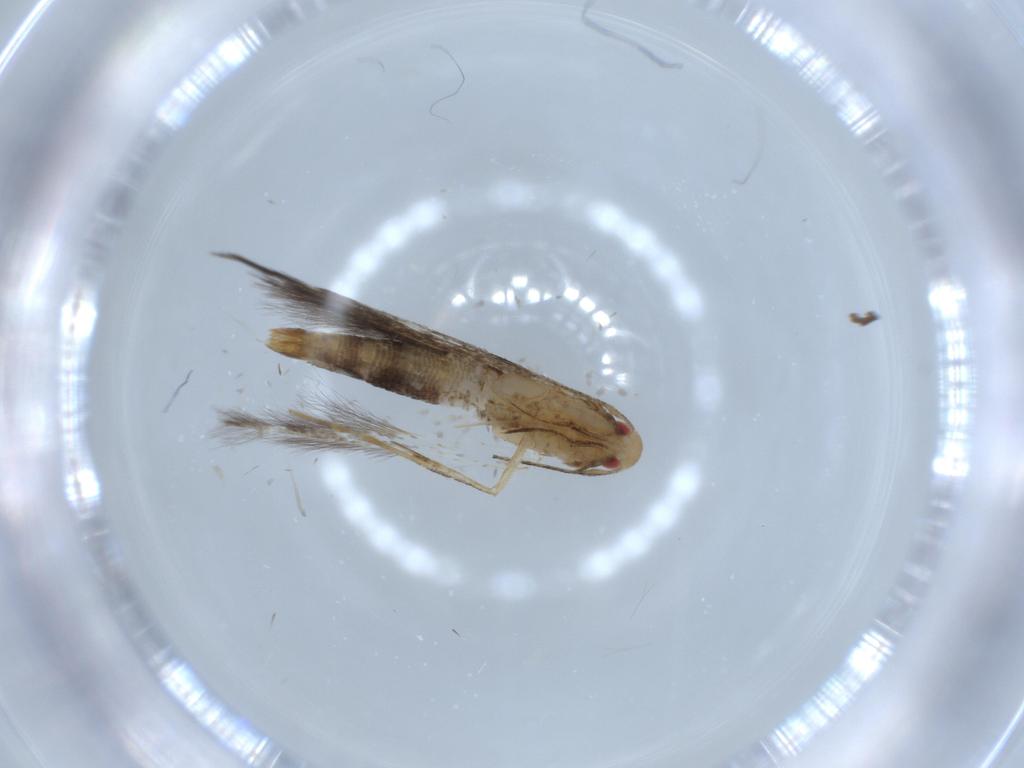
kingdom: Animalia
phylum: Arthropoda
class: Insecta
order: Lepidoptera
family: Cosmopterigidae
